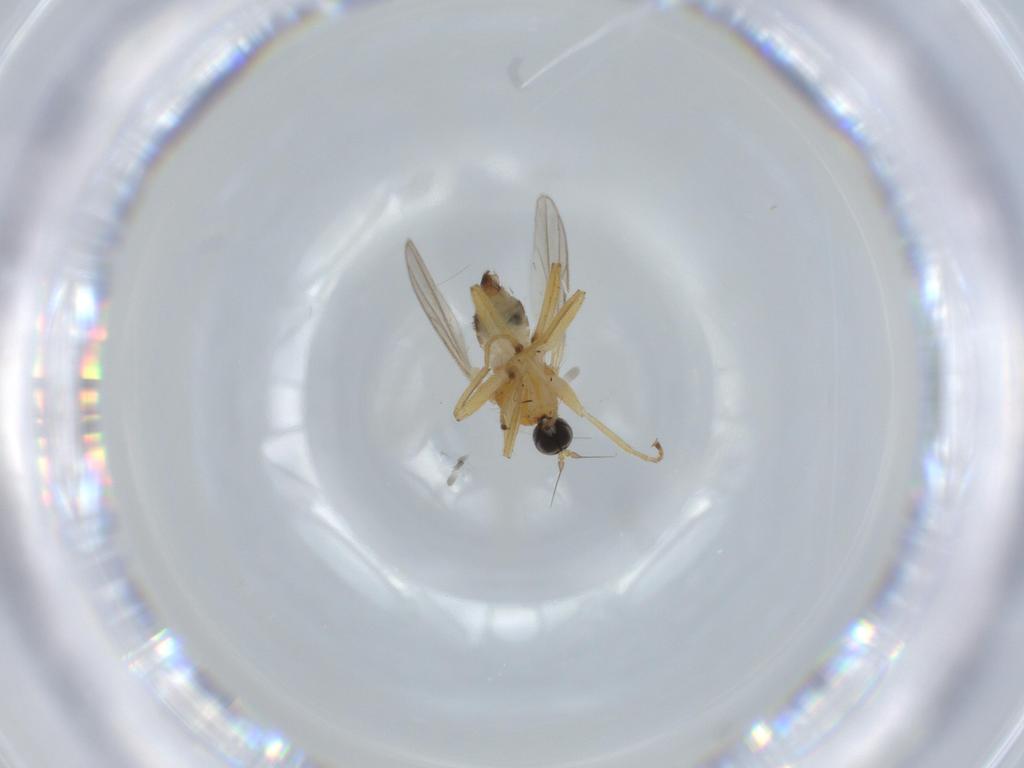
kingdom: Animalia
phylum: Arthropoda
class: Insecta
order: Diptera
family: Hybotidae
